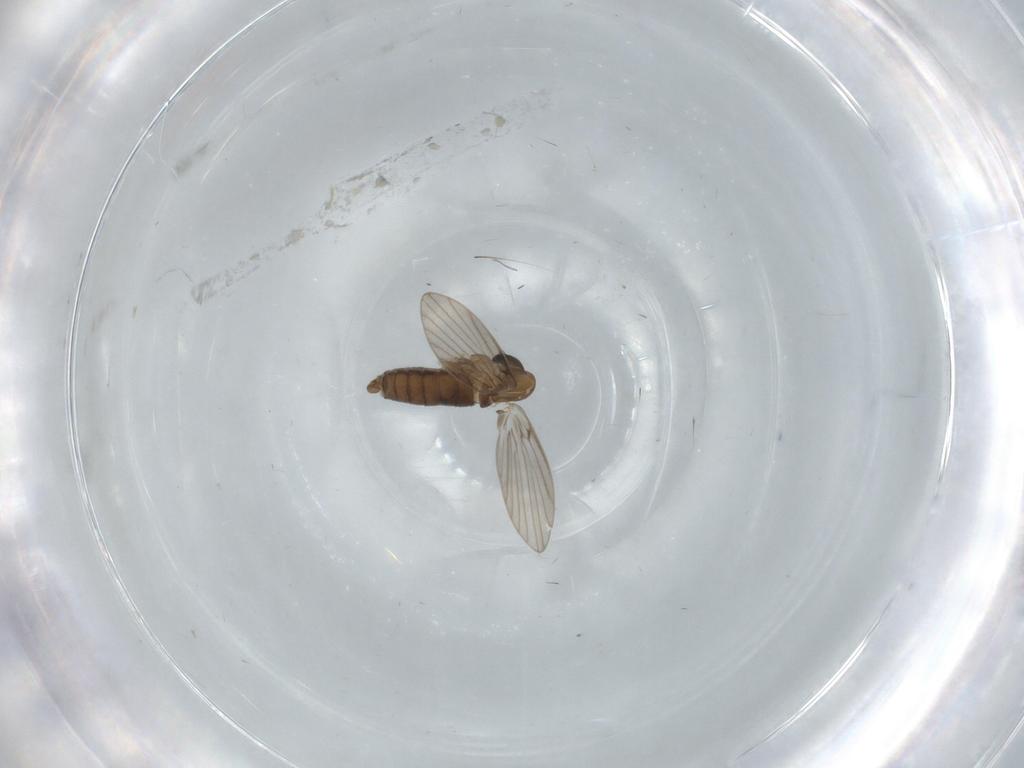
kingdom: Animalia
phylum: Arthropoda
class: Insecta
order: Diptera
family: Psychodidae
